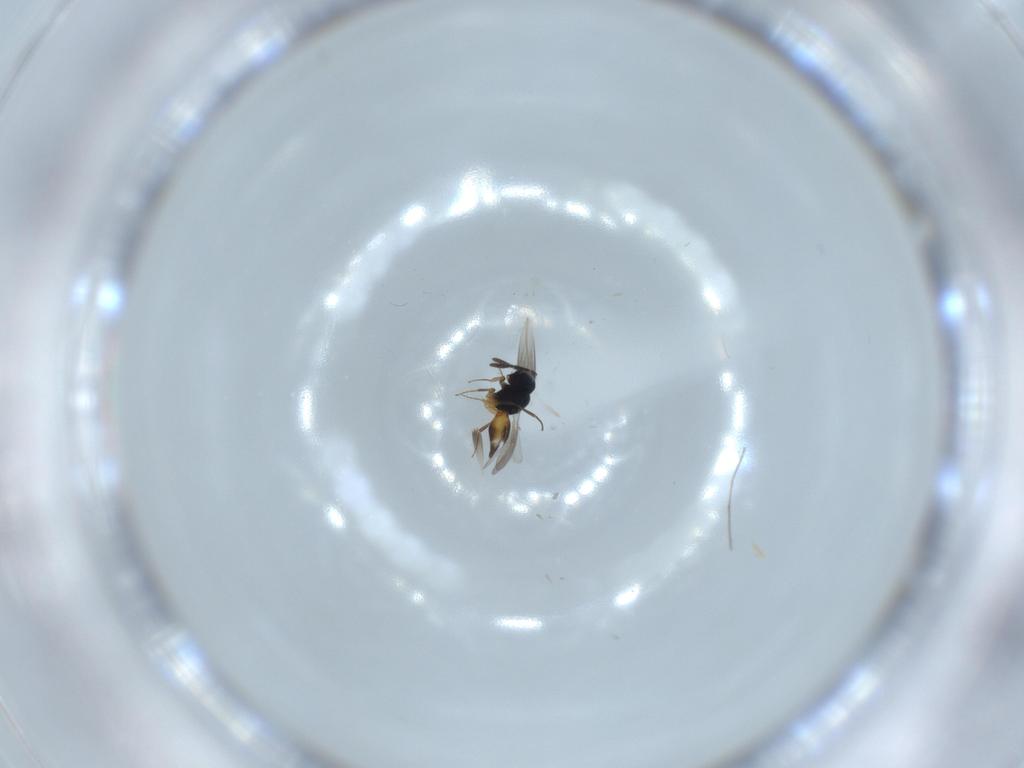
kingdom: Animalia
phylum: Arthropoda
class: Insecta
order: Hymenoptera
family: Scelionidae
